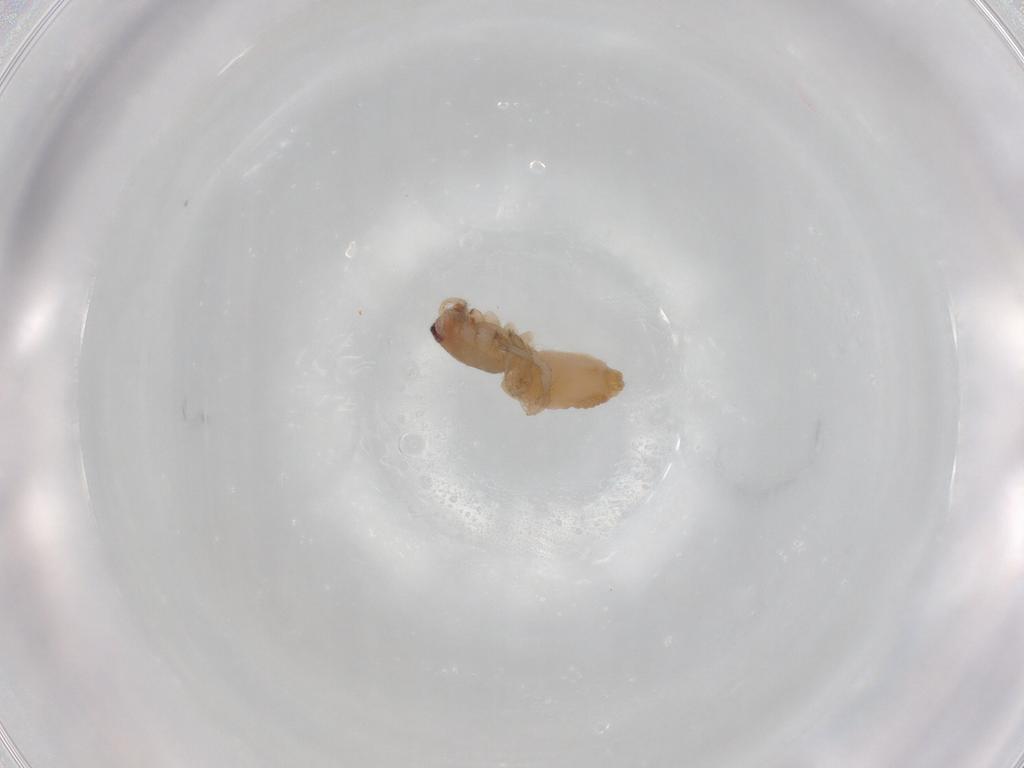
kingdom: Animalia
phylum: Arthropoda
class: Arachnida
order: Araneae
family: Clubionidae
